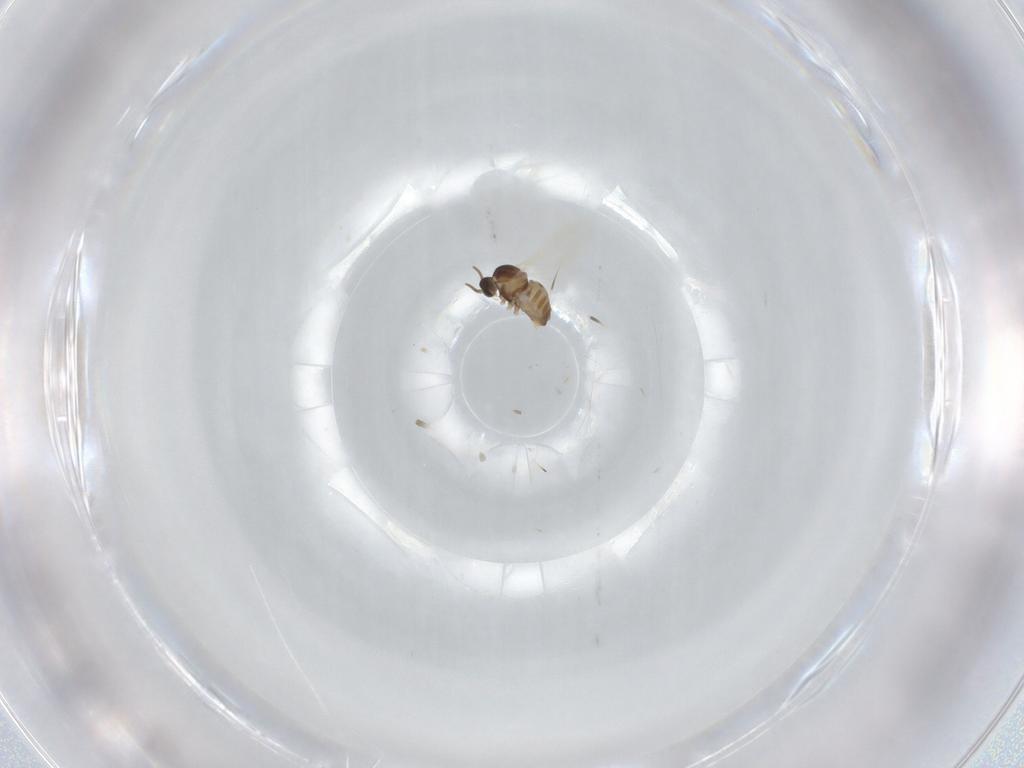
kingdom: Animalia
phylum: Arthropoda
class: Insecta
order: Diptera
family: Cecidomyiidae
